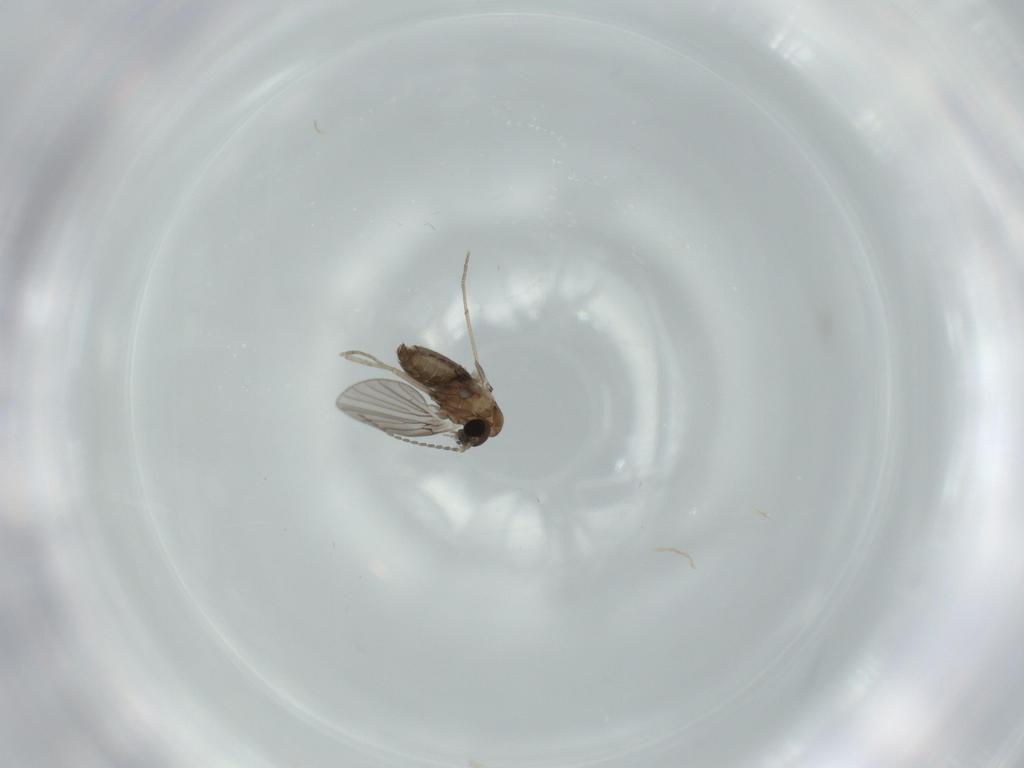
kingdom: Animalia
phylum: Arthropoda
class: Insecta
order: Diptera
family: Psychodidae
